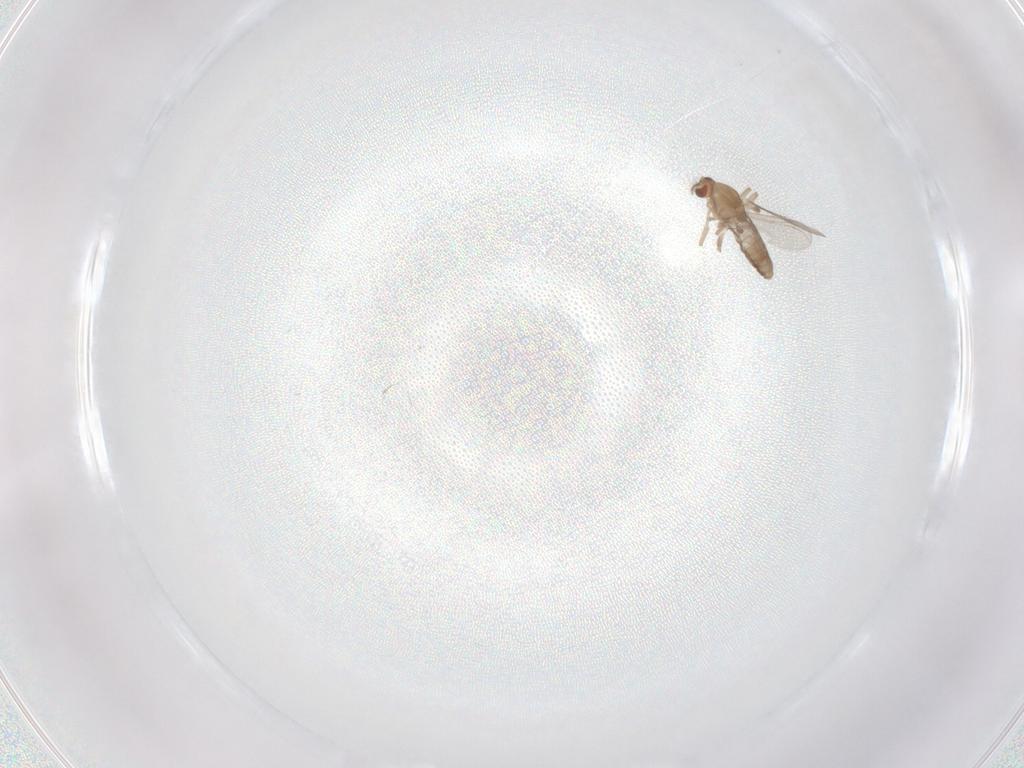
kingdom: Animalia
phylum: Arthropoda
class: Insecta
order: Diptera
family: Chironomidae
